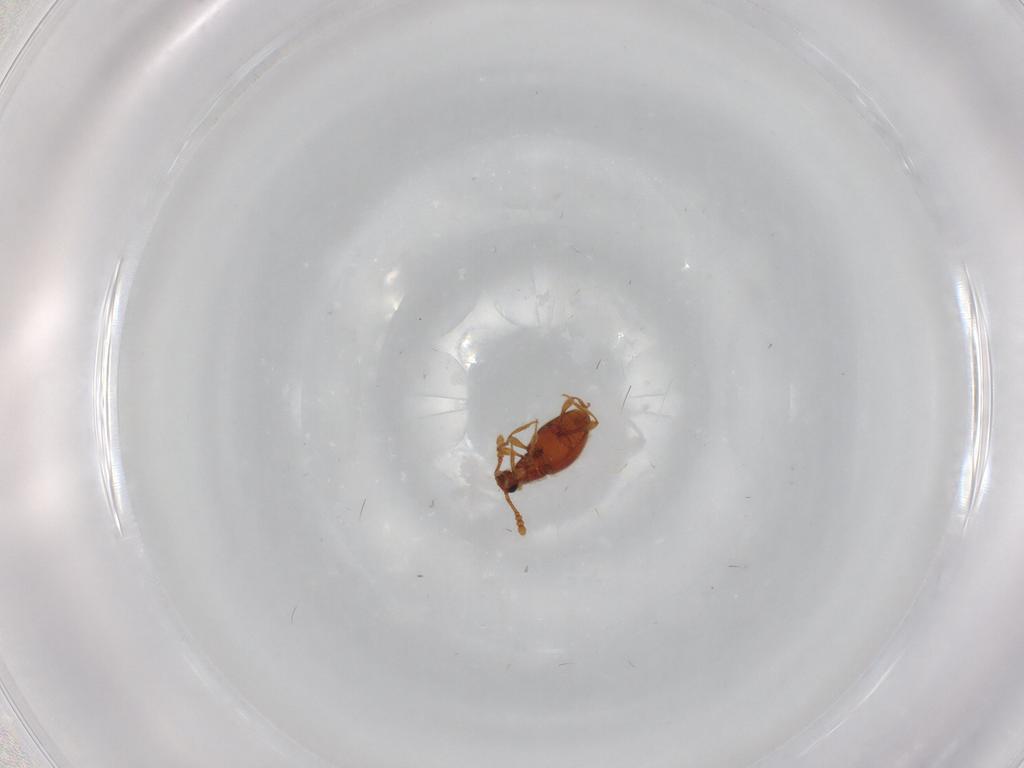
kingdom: Animalia
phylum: Arthropoda
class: Insecta
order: Coleoptera
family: Staphylinidae
